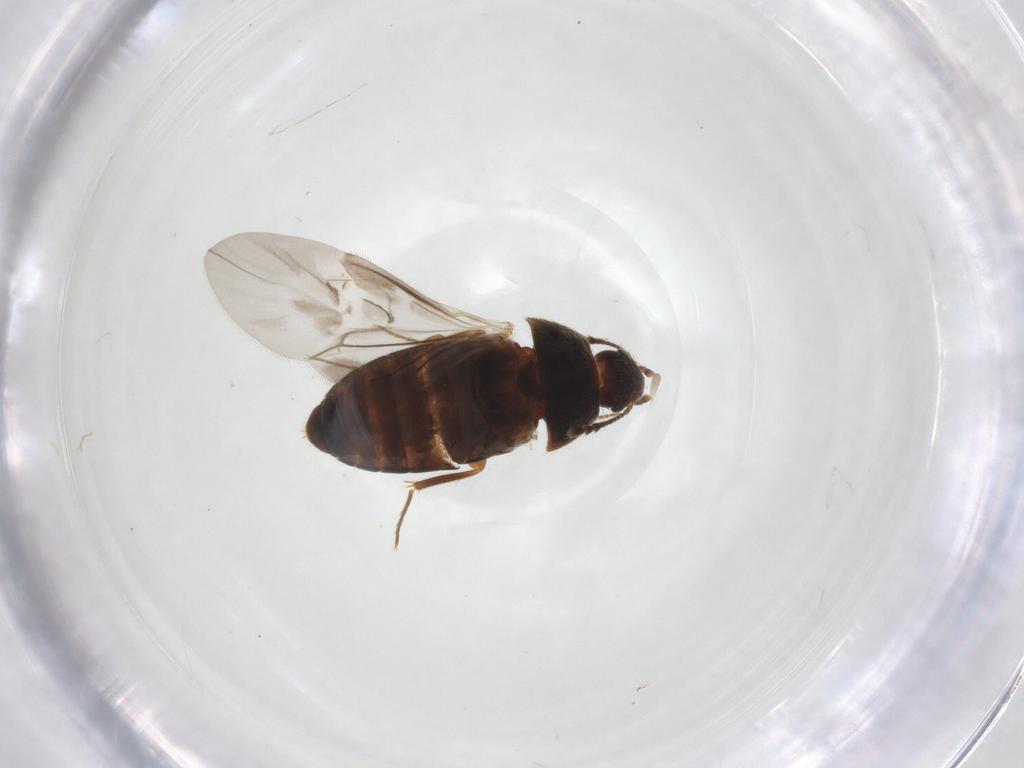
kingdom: Animalia
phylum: Arthropoda
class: Insecta
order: Coleoptera
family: Mycetophagidae
